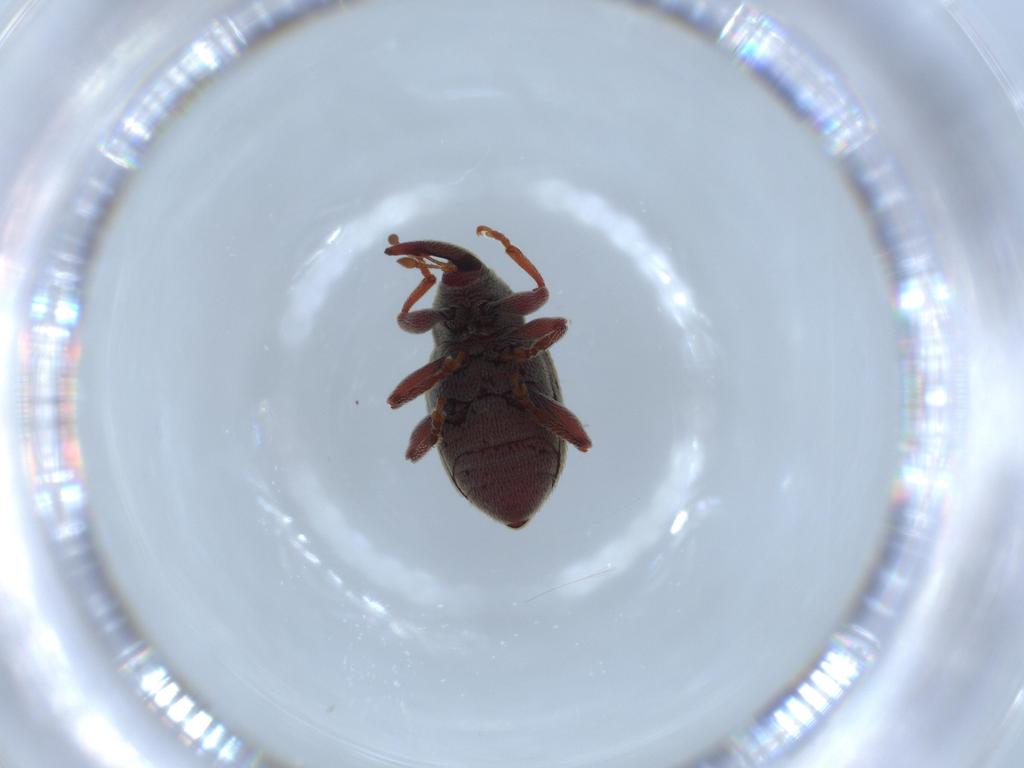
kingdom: Animalia
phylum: Arthropoda
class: Insecta
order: Coleoptera
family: Curculionidae
